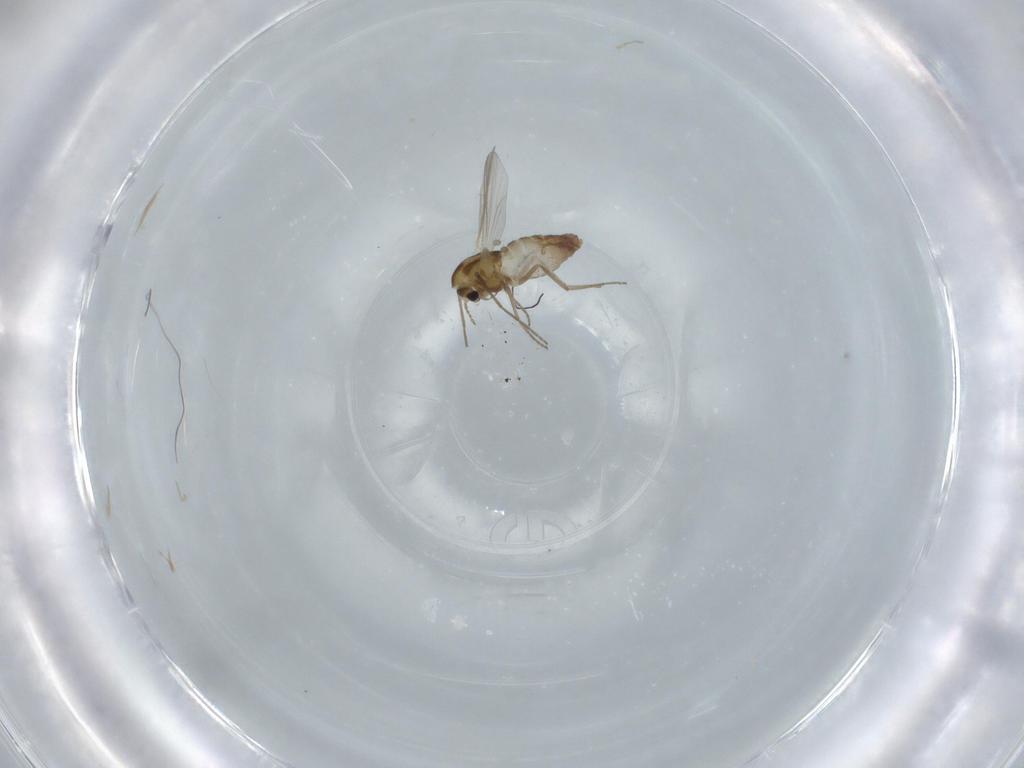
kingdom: Animalia
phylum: Arthropoda
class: Insecta
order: Diptera
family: Chironomidae
